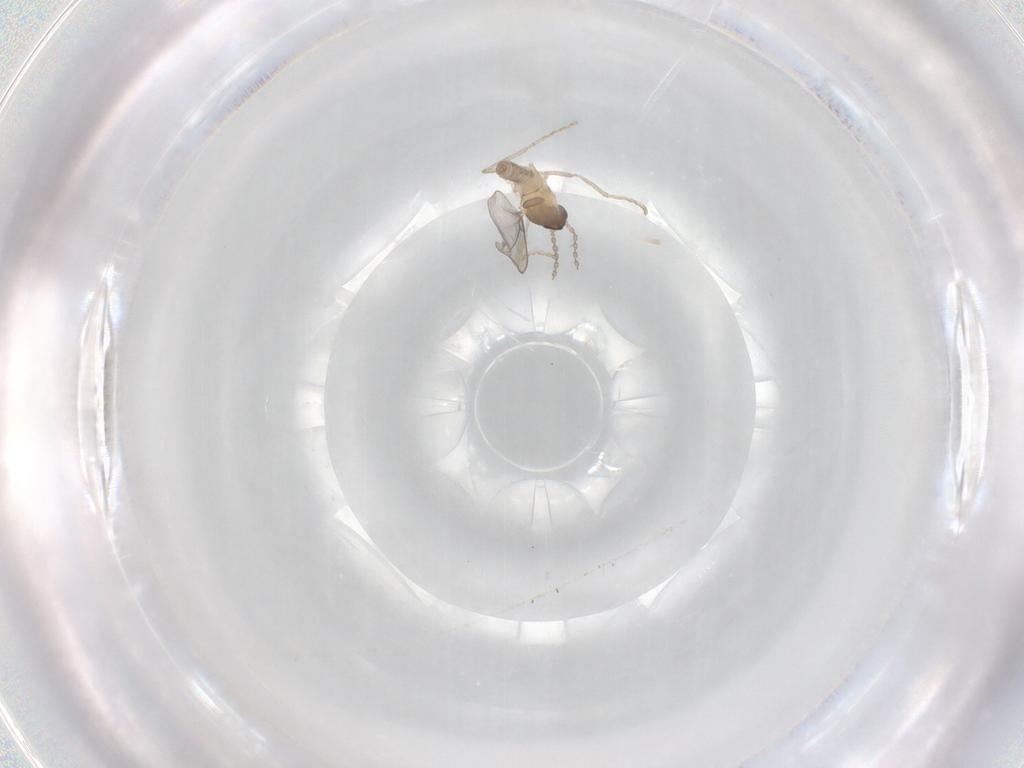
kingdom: Animalia
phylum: Arthropoda
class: Insecta
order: Diptera
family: Cecidomyiidae
